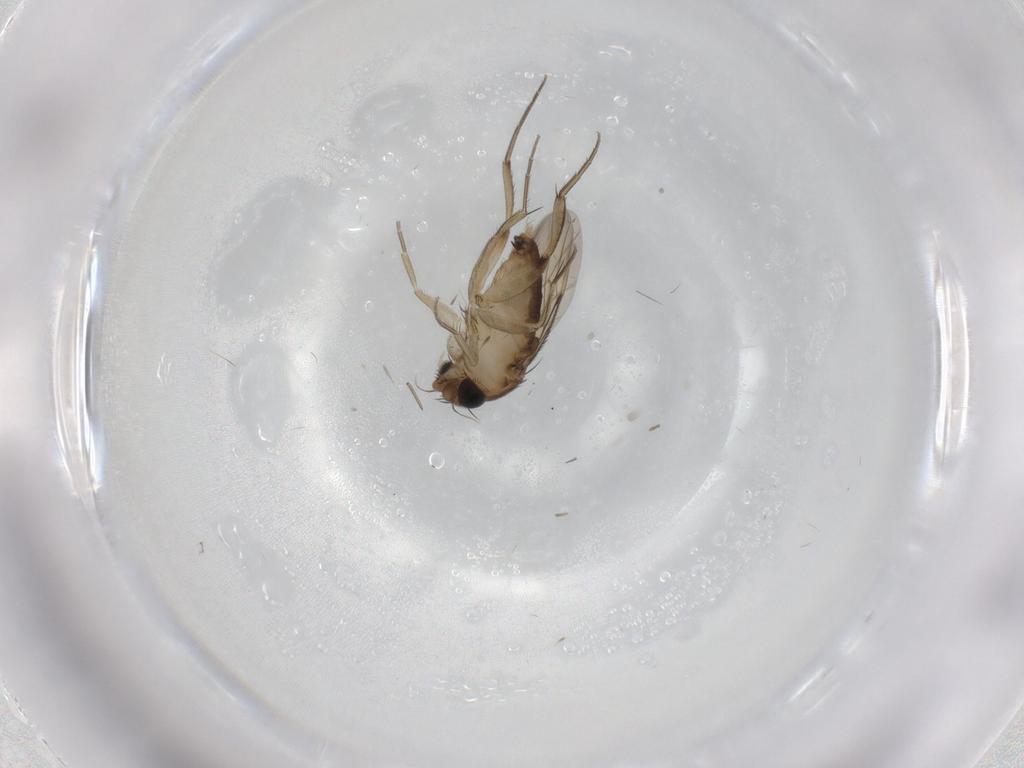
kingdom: Animalia
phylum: Arthropoda
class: Insecta
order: Diptera
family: Phoridae
